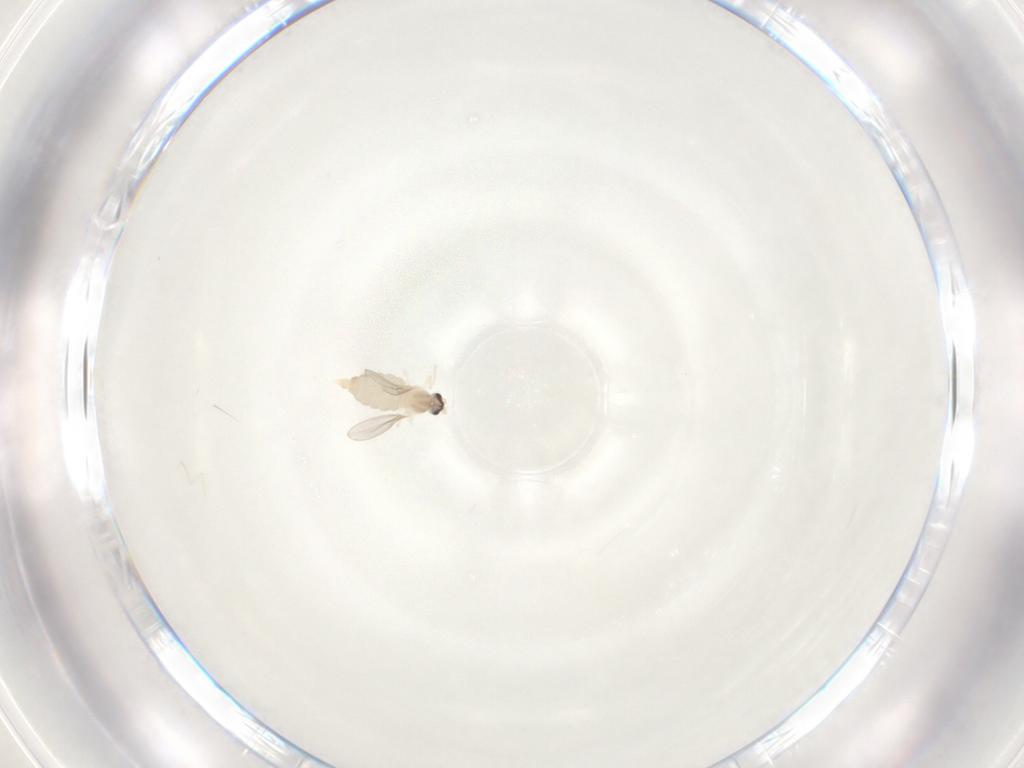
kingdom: Animalia
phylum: Arthropoda
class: Insecta
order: Diptera
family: Cecidomyiidae
